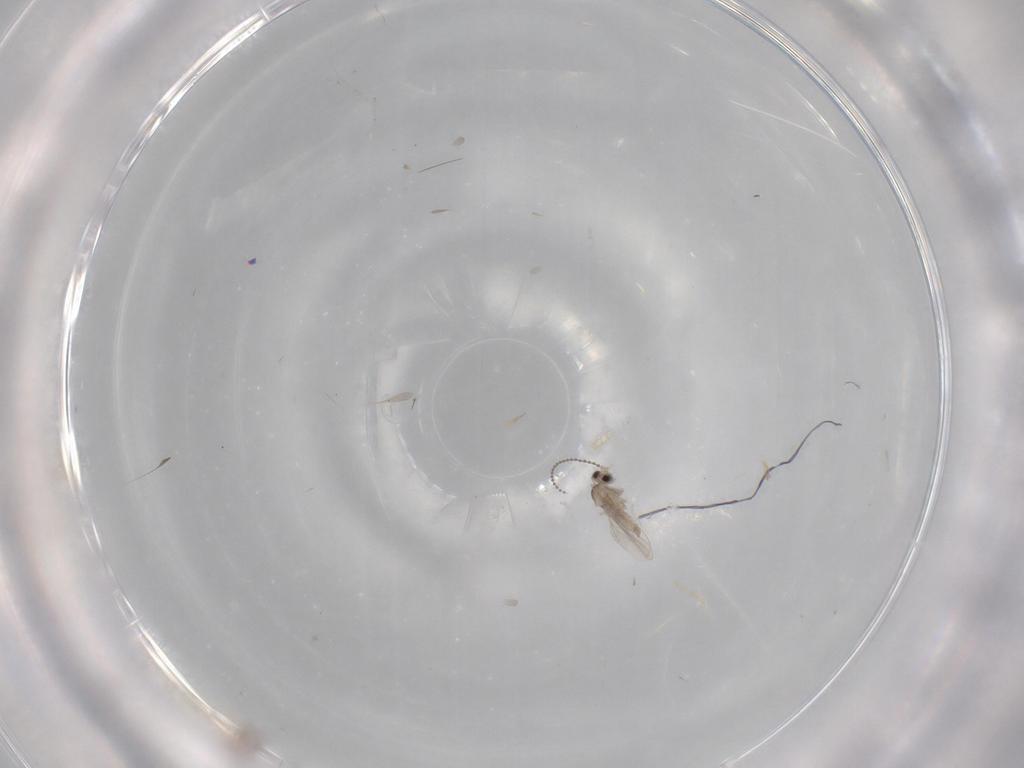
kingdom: Animalia
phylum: Arthropoda
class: Insecta
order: Diptera
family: Cecidomyiidae
